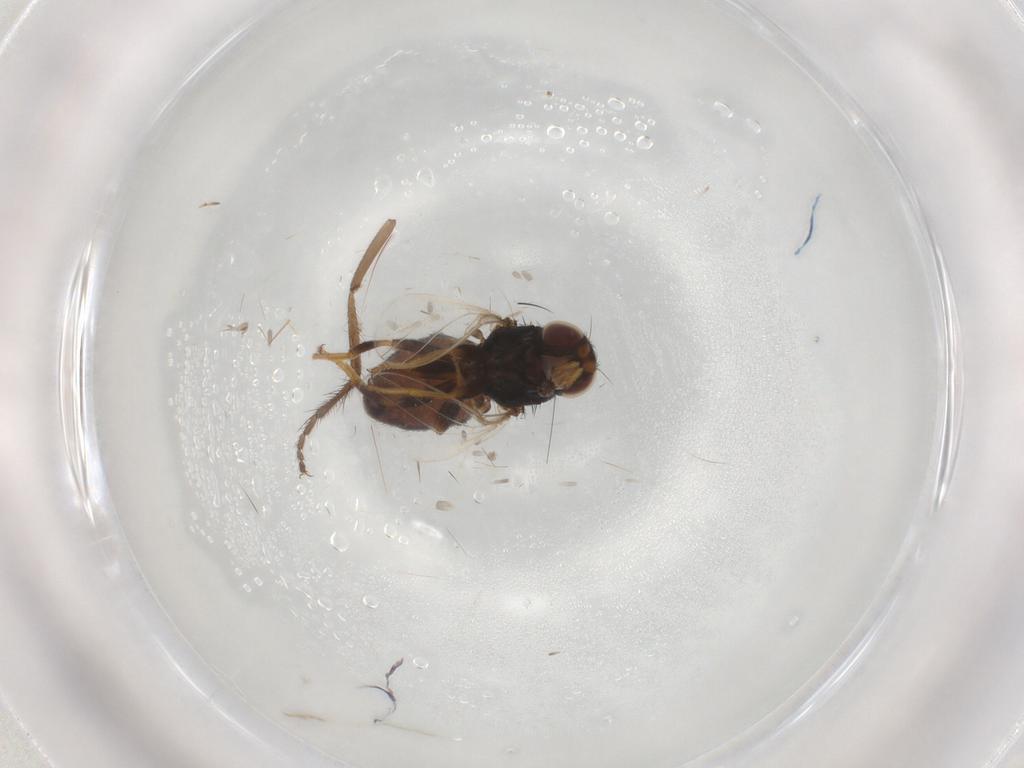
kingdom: Animalia
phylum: Arthropoda
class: Insecta
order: Diptera
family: Chloropidae
